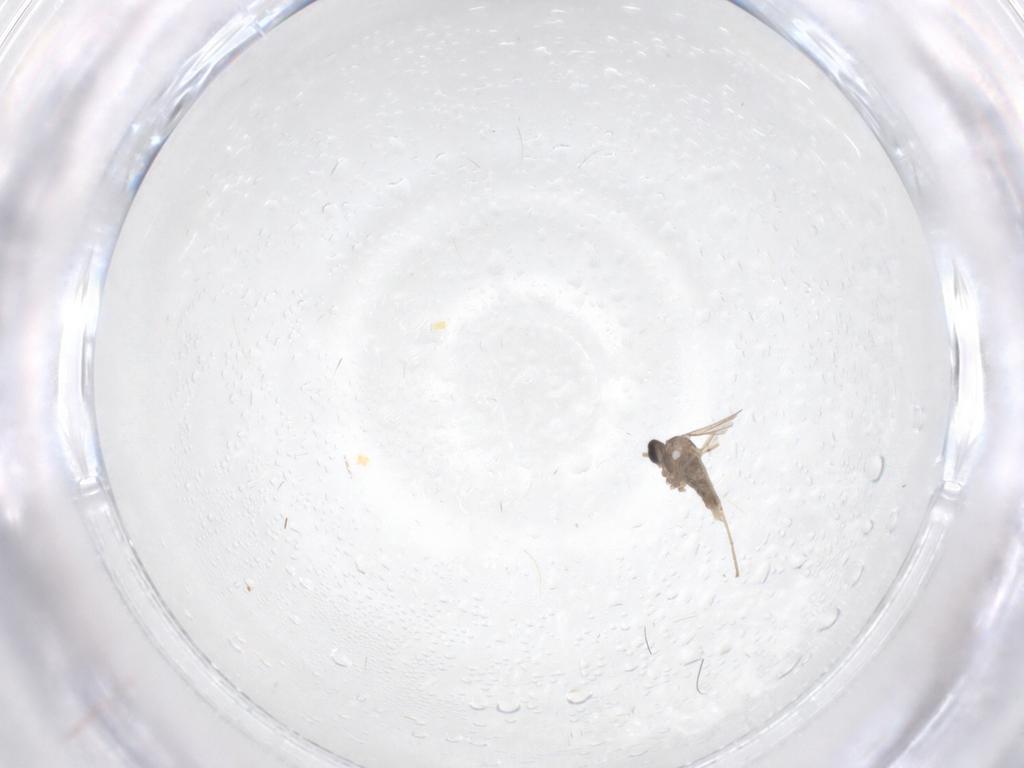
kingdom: Animalia
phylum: Arthropoda
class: Insecta
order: Diptera
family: Cecidomyiidae
